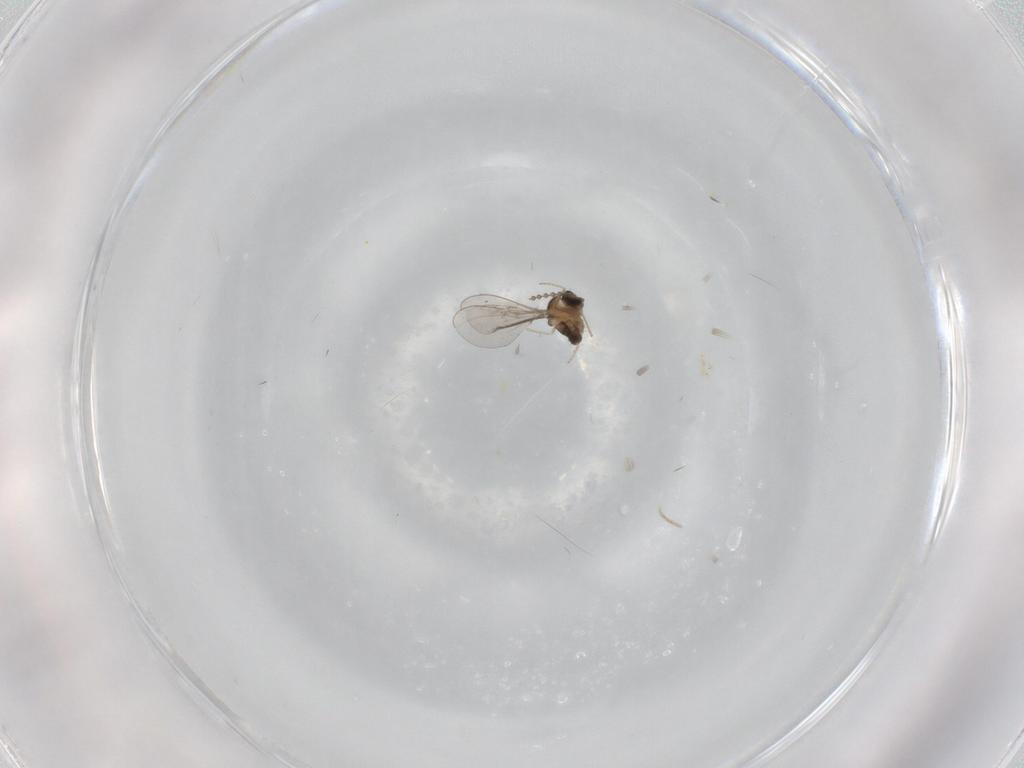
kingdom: Animalia
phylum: Arthropoda
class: Insecta
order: Diptera
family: Cecidomyiidae
